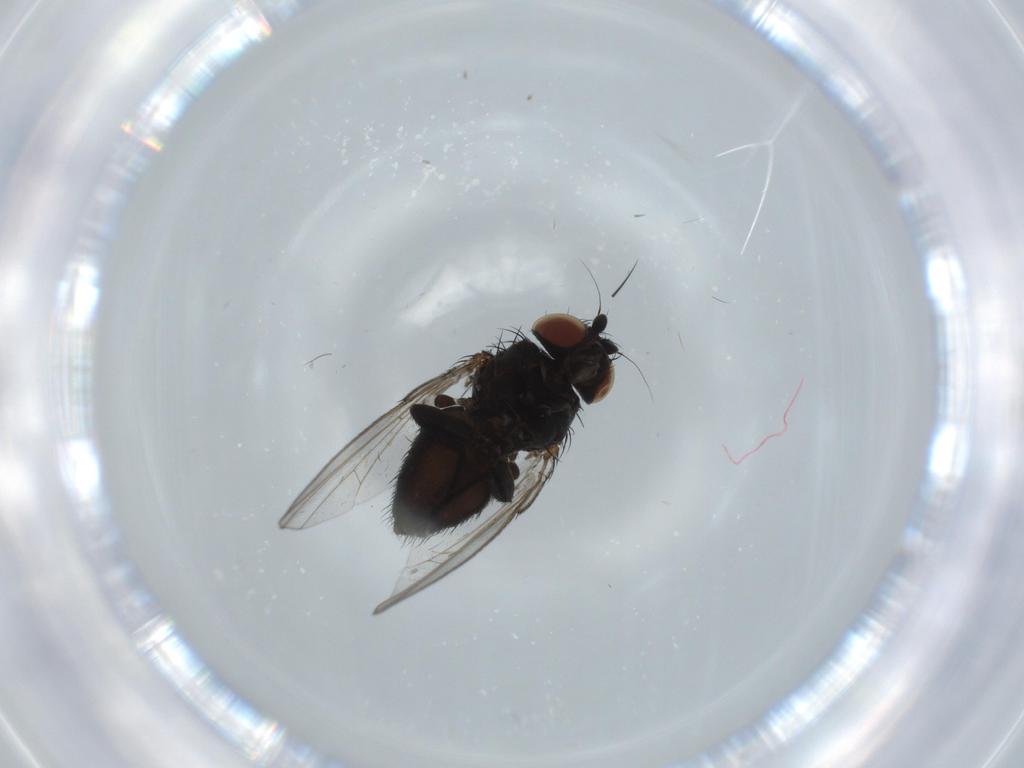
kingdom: Animalia
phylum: Arthropoda
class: Insecta
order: Diptera
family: Milichiidae
